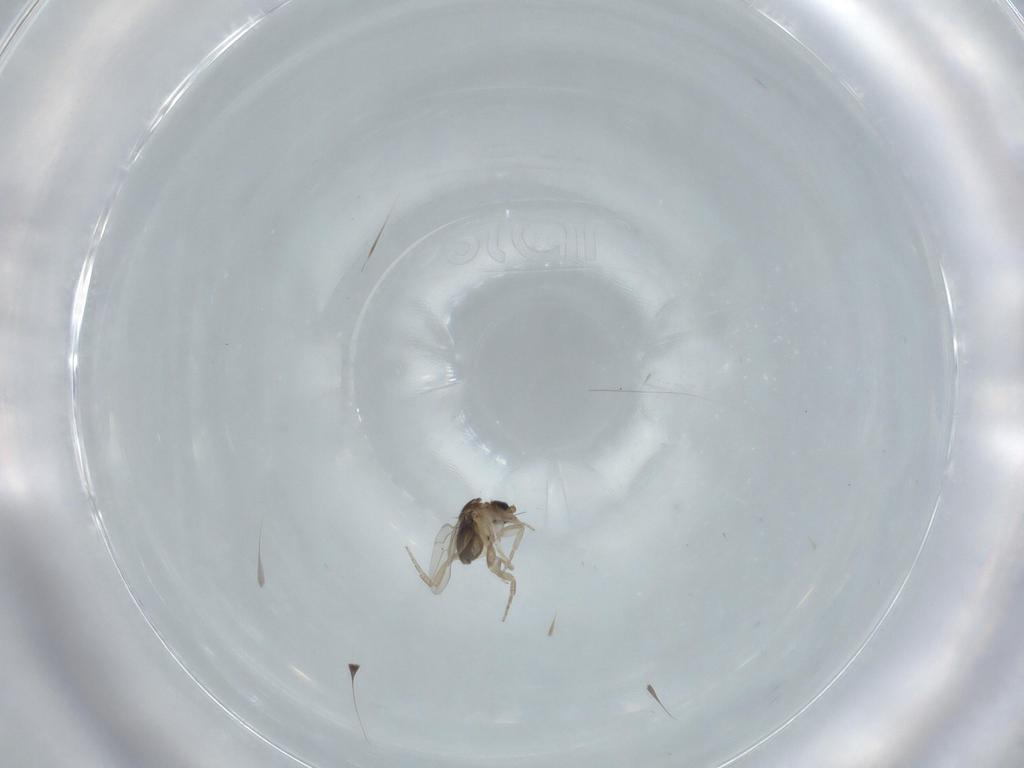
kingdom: Animalia
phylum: Arthropoda
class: Insecta
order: Diptera
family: Phoridae
